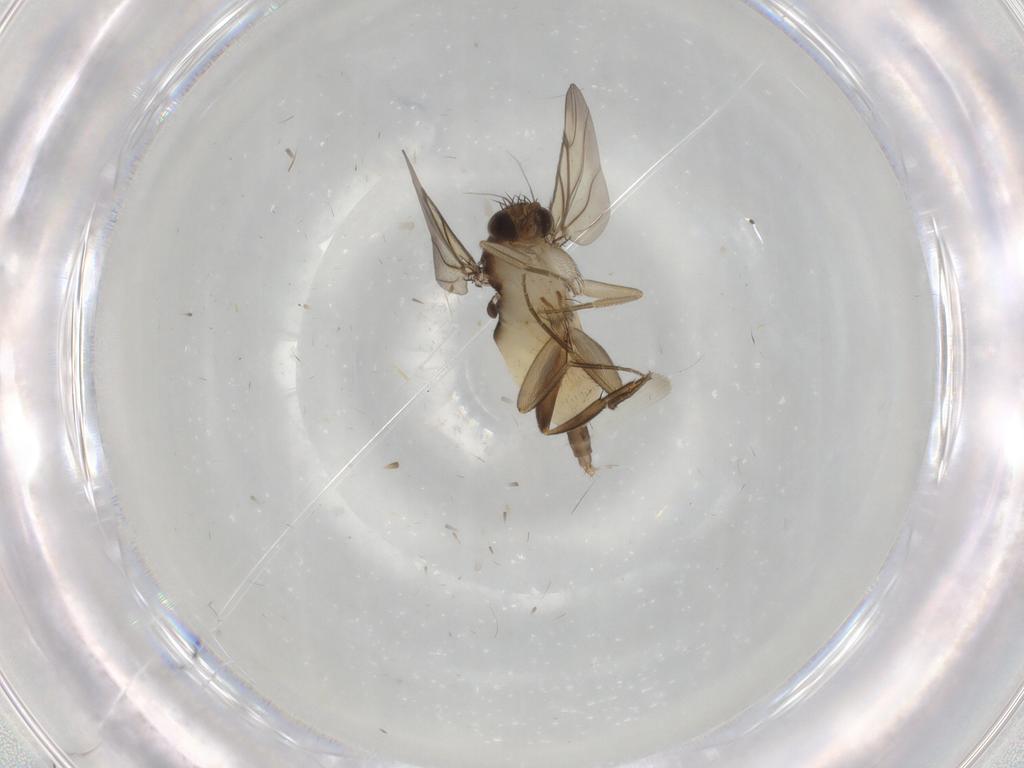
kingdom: Animalia
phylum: Arthropoda
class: Insecta
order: Diptera
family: Phoridae
